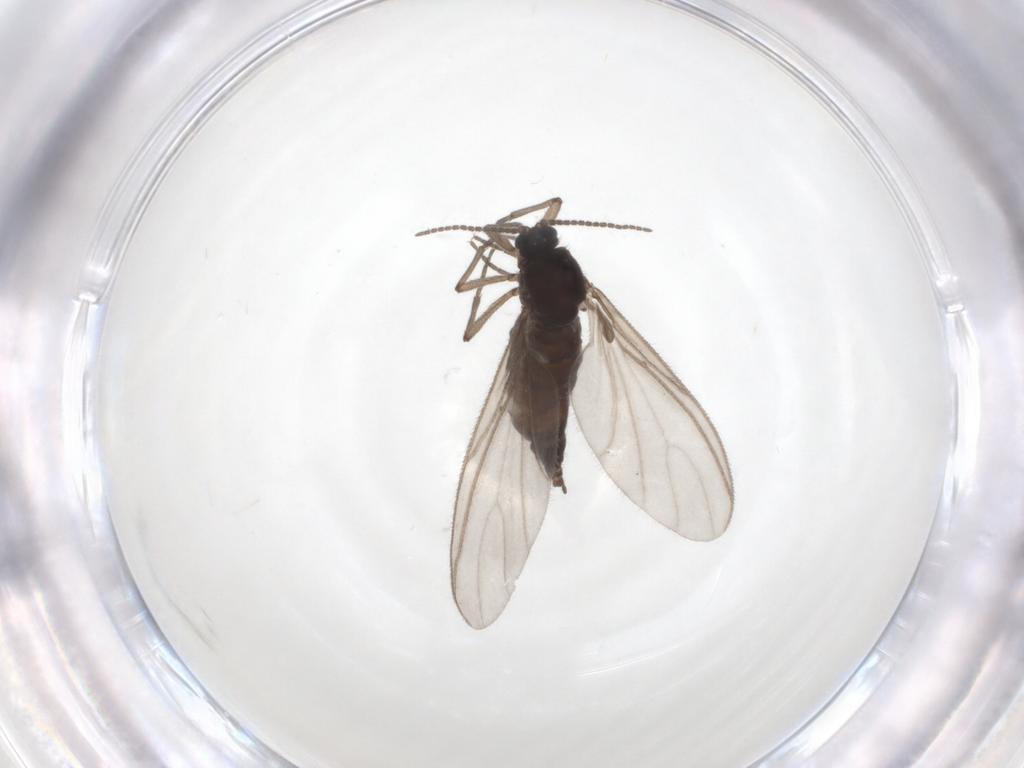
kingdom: Animalia
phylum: Arthropoda
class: Insecta
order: Diptera
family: Sciaridae
